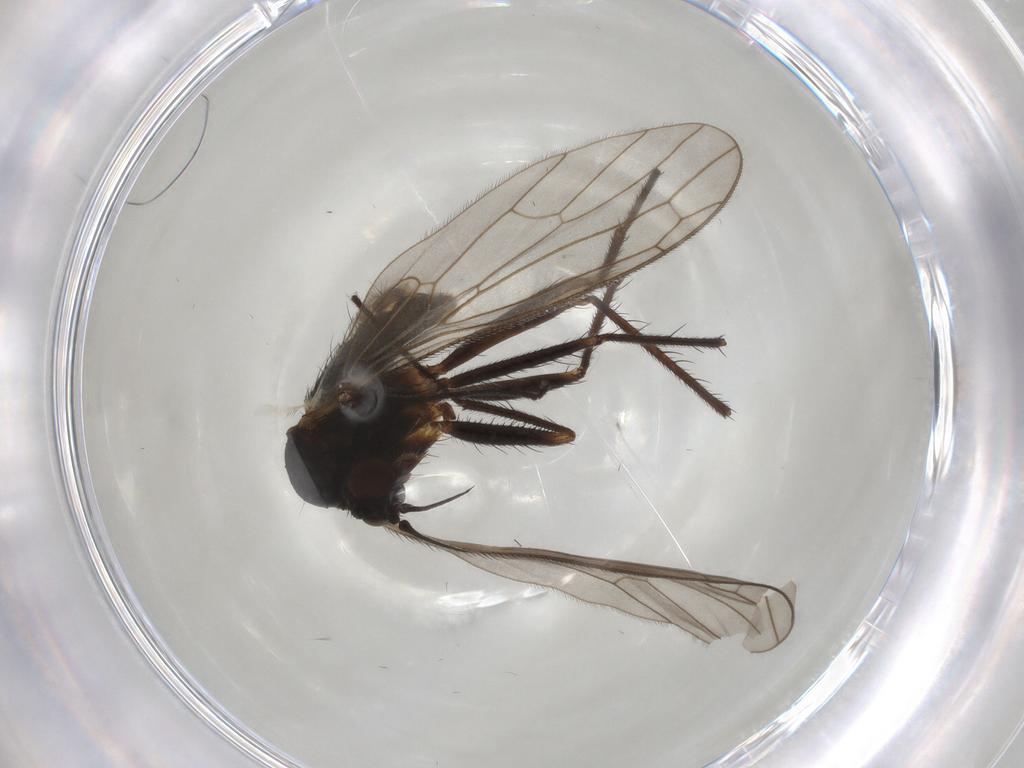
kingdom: Animalia
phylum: Arthropoda
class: Insecta
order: Diptera
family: Empididae
